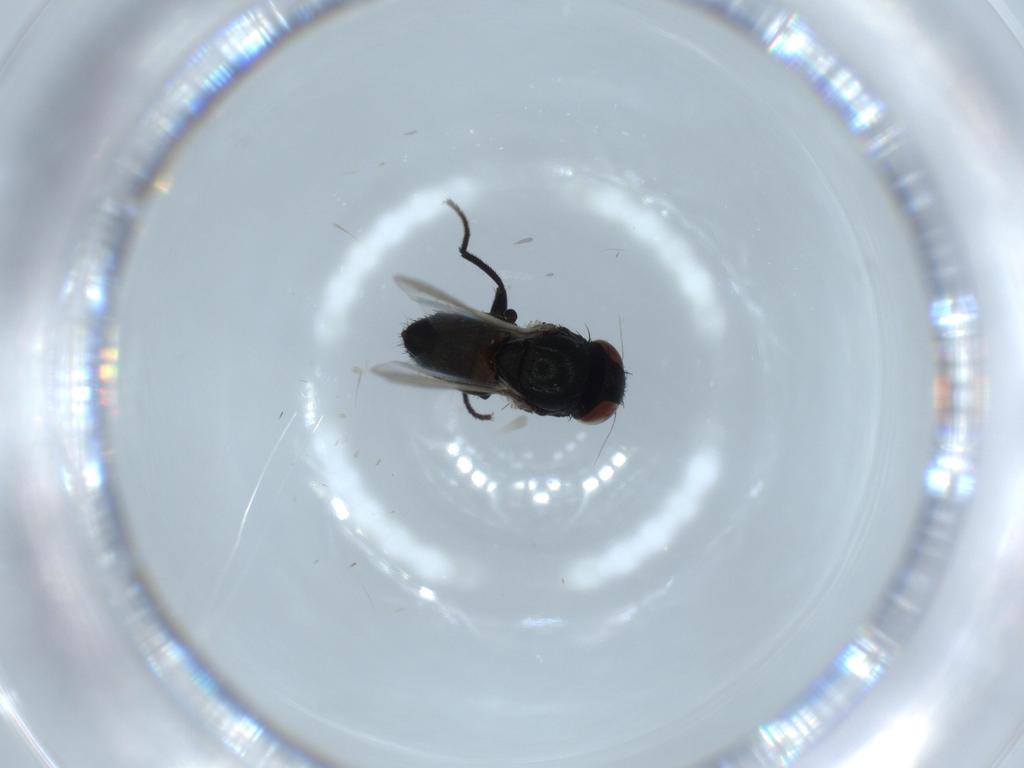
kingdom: Animalia
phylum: Arthropoda
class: Insecta
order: Diptera
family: Milichiidae
